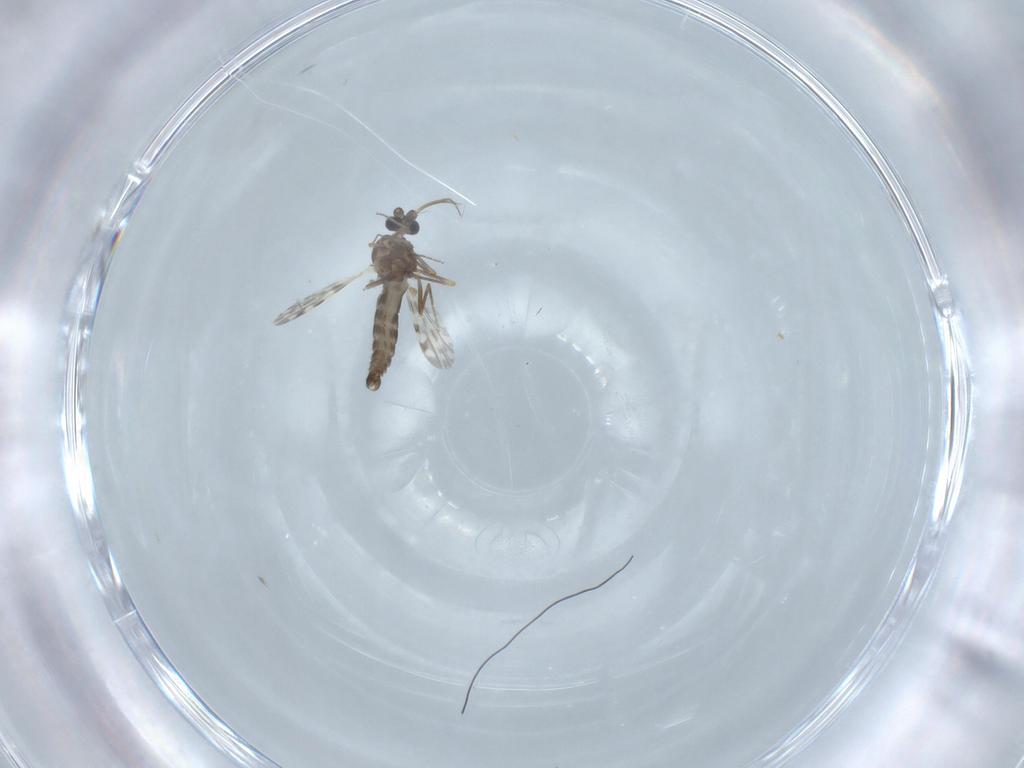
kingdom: Animalia
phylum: Arthropoda
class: Insecta
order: Diptera
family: Ceratopogonidae
